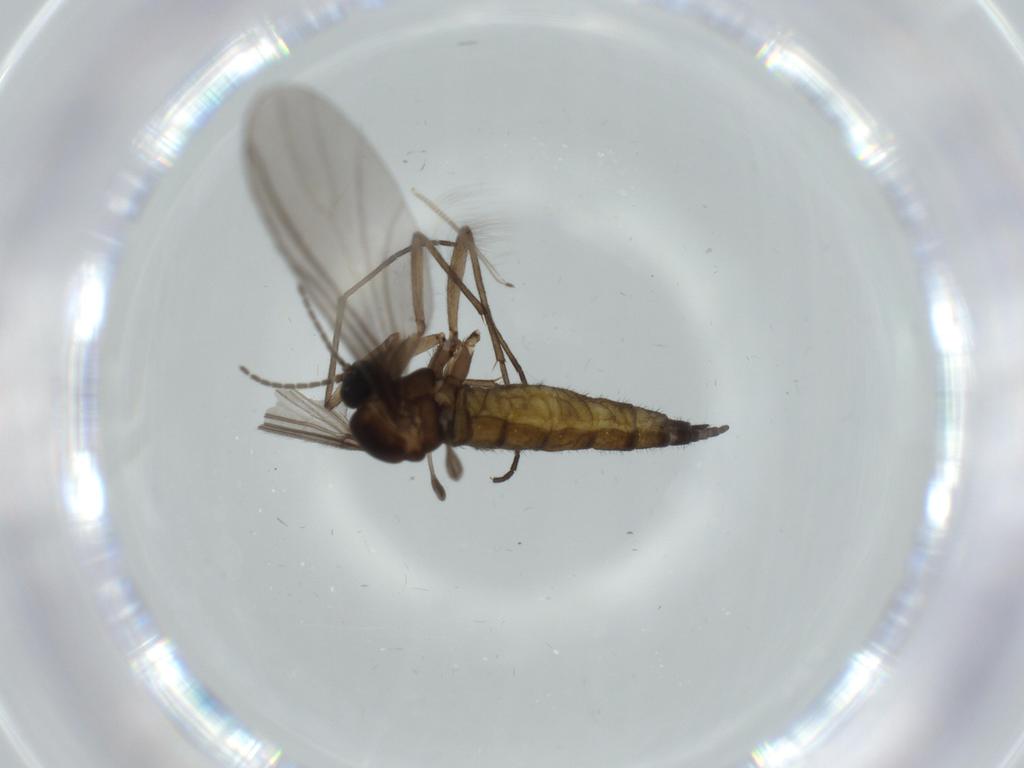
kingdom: Animalia
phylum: Arthropoda
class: Insecta
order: Diptera
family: Sciaridae
